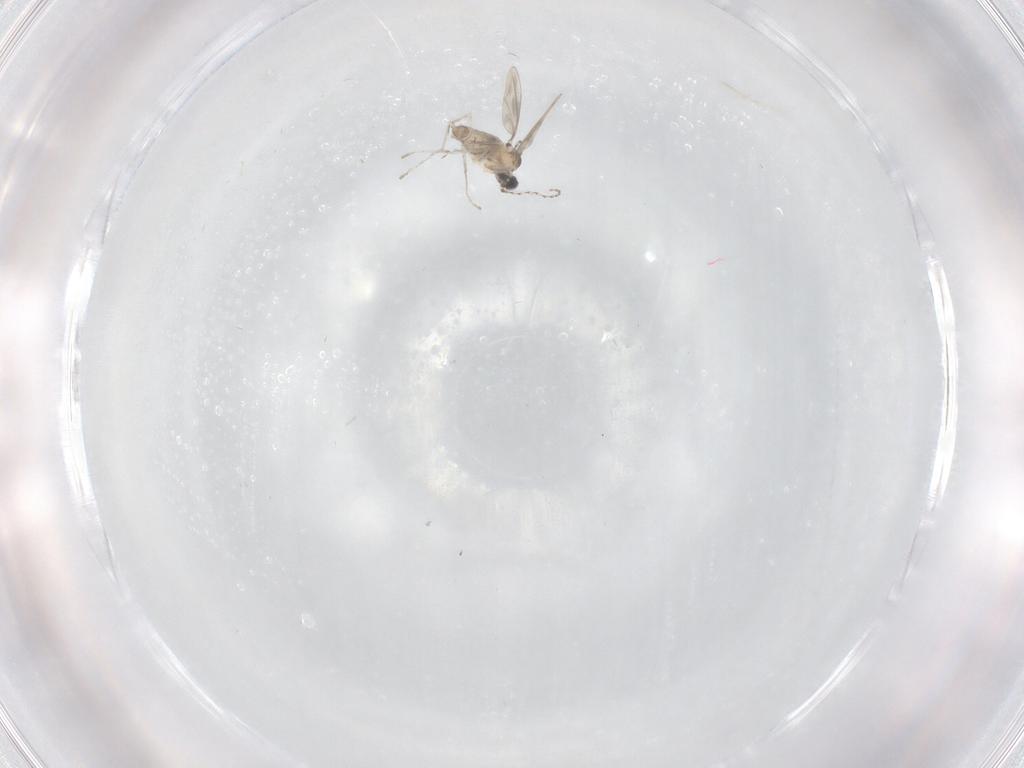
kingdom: Animalia
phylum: Arthropoda
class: Insecta
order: Diptera
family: Cecidomyiidae
